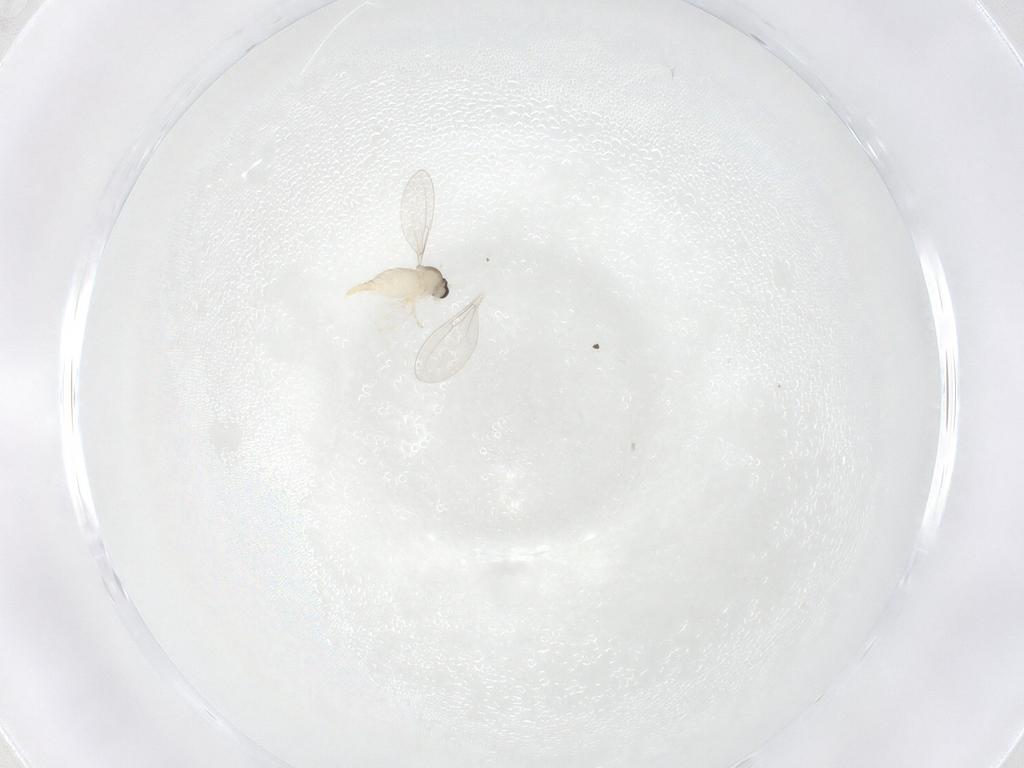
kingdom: Animalia
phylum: Arthropoda
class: Insecta
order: Diptera
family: Cecidomyiidae
